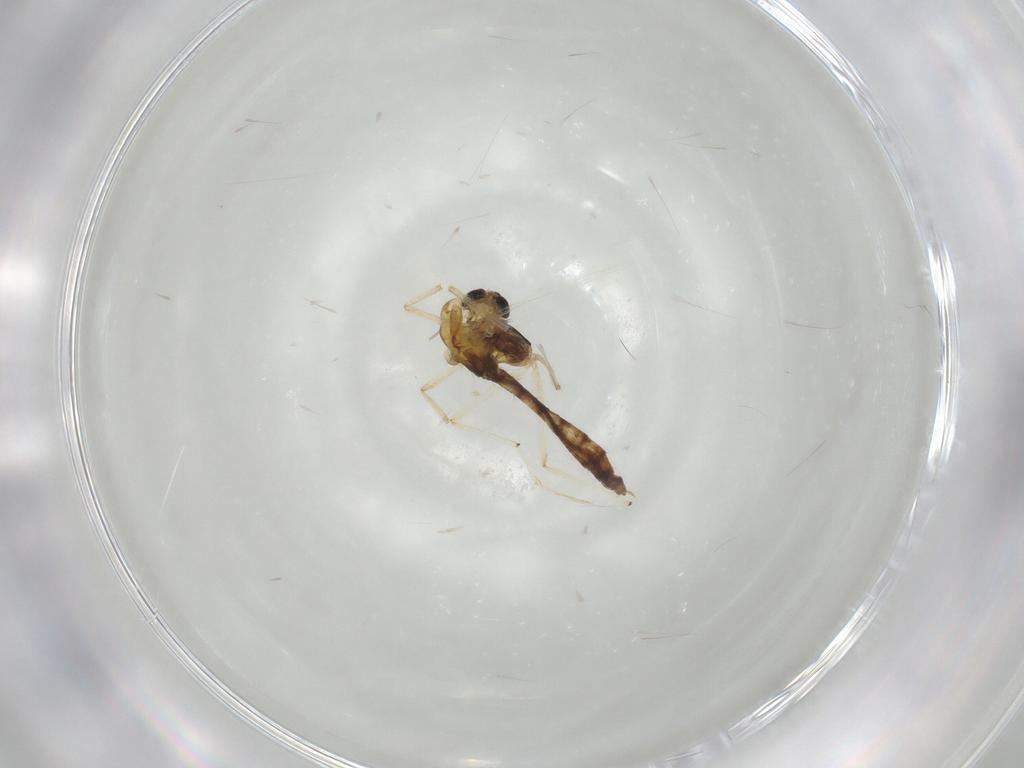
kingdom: Animalia
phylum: Arthropoda
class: Insecta
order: Diptera
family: Chironomidae
